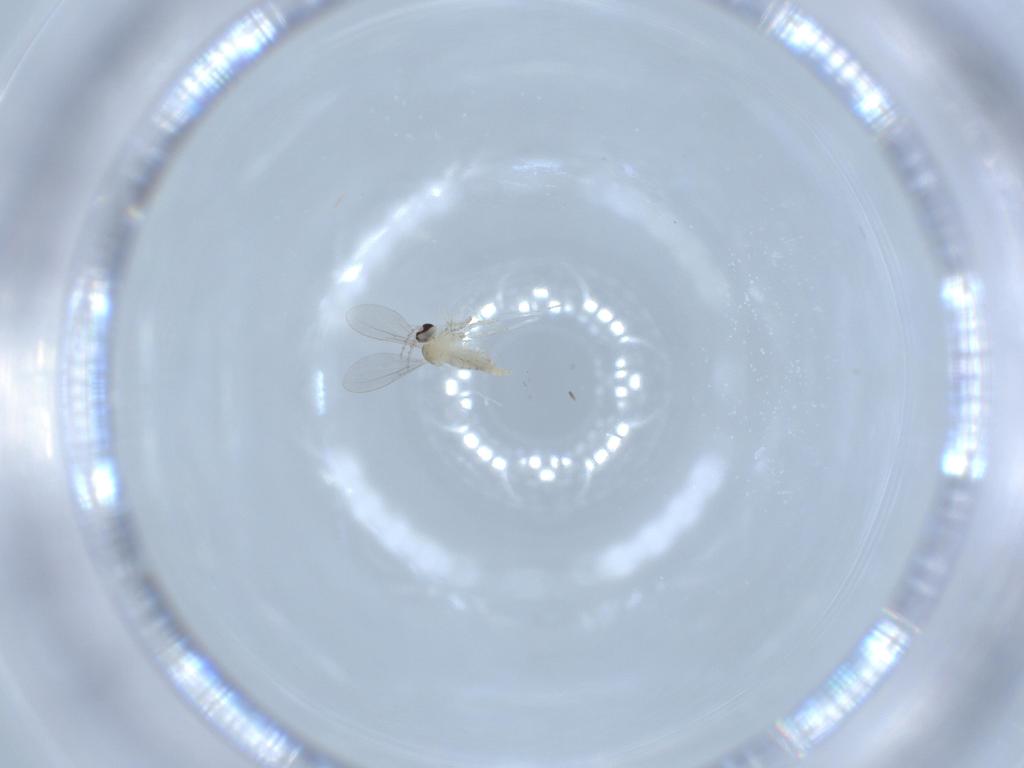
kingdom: Animalia
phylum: Arthropoda
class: Insecta
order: Diptera
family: Cecidomyiidae
